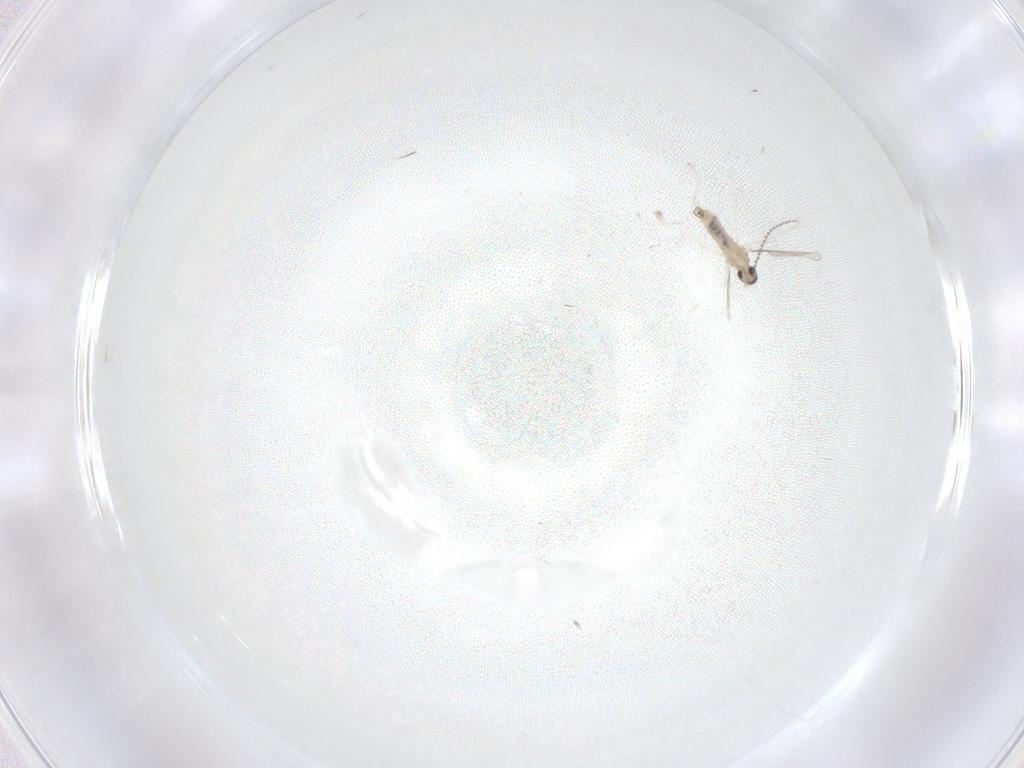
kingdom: Animalia
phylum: Arthropoda
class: Insecta
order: Diptera
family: Cecidomyiidae
